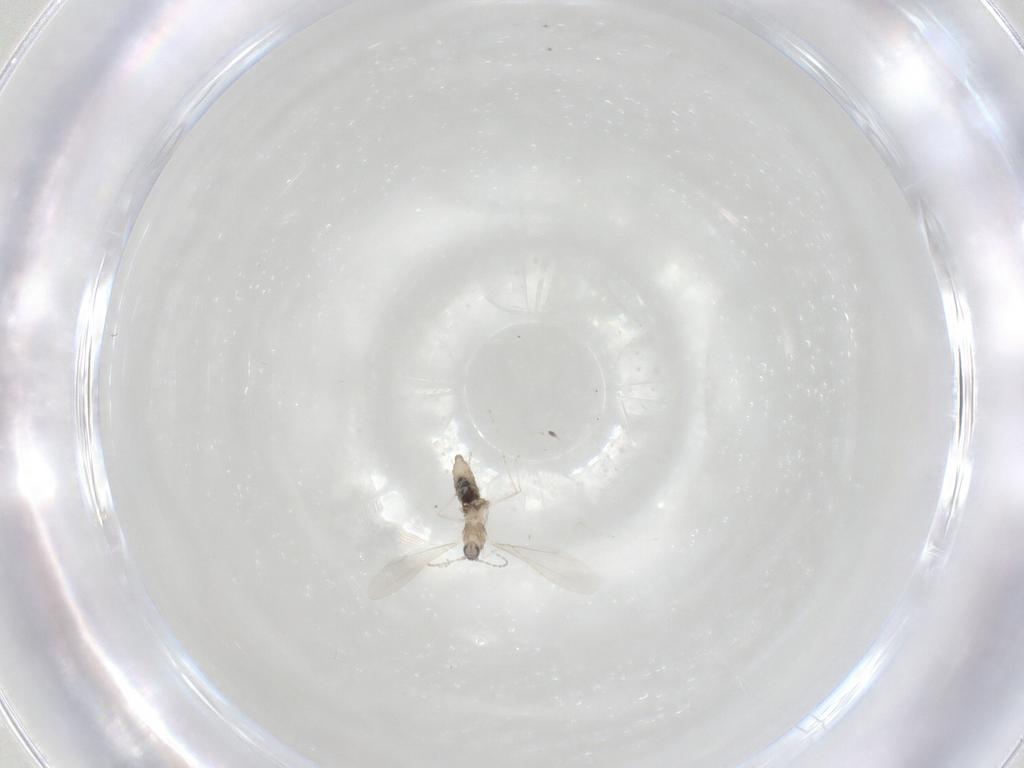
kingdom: Animalia
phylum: Arthropoda
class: Insecta
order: Diptera
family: Cecidomyiidae
